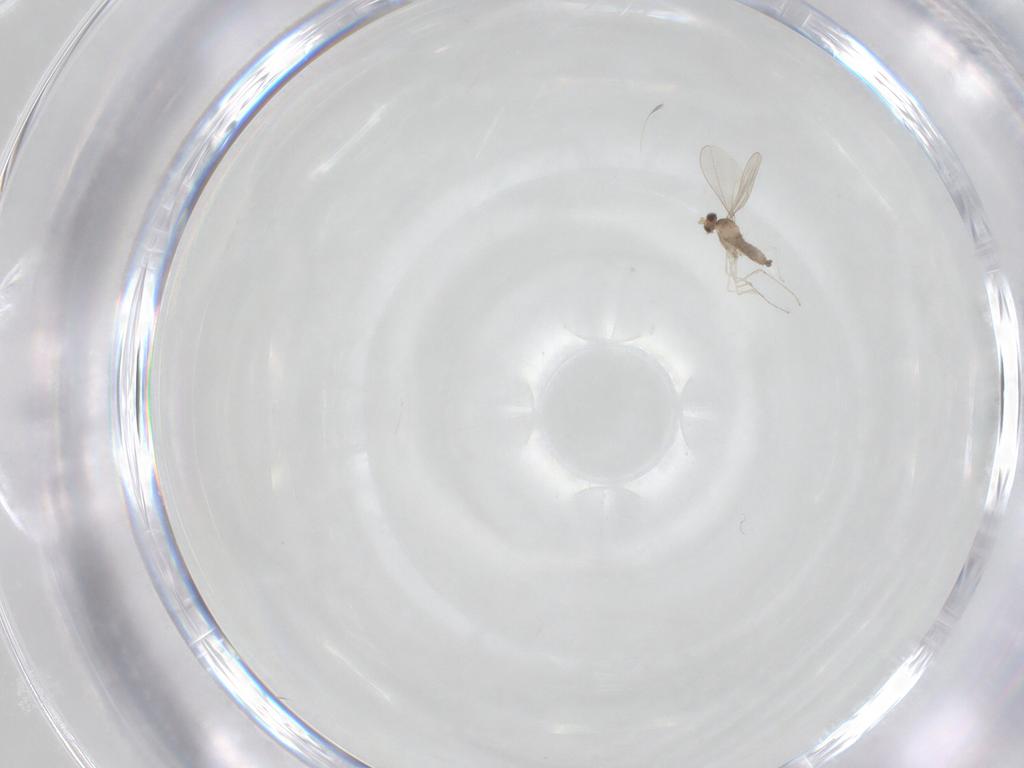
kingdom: Animalia
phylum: Arthropoda
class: Insecta
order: Diptera
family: Cecidomyiidae
